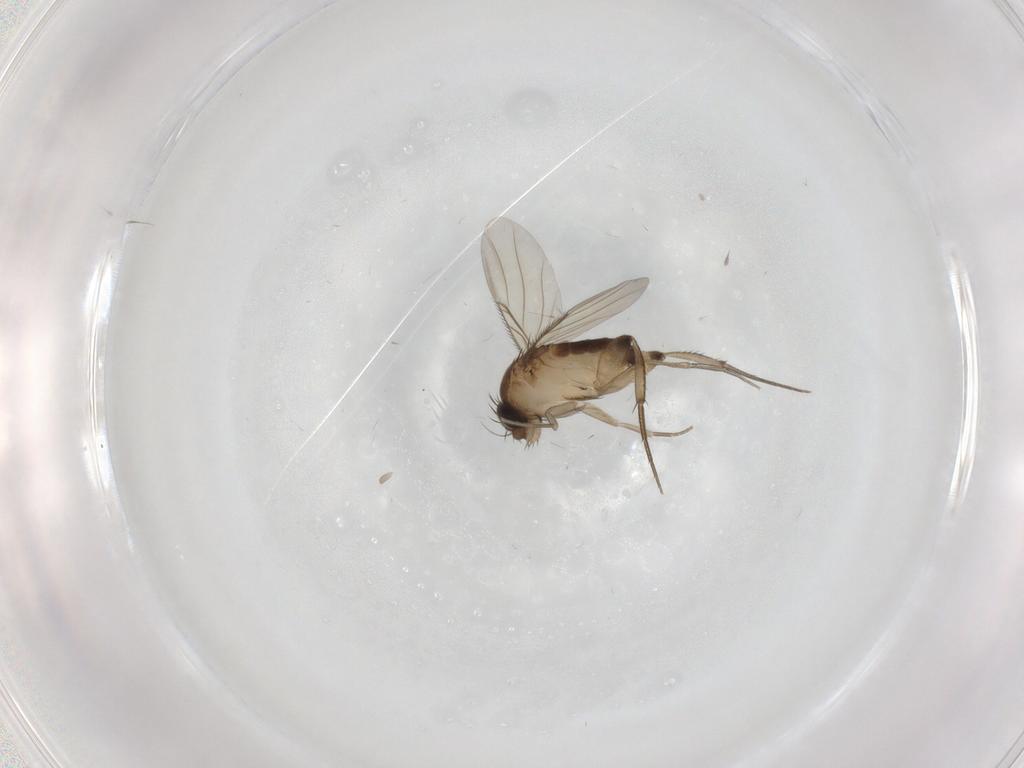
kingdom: Animalia
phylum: Arthropoda
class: Insecta
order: Diptera
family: Phoridae
